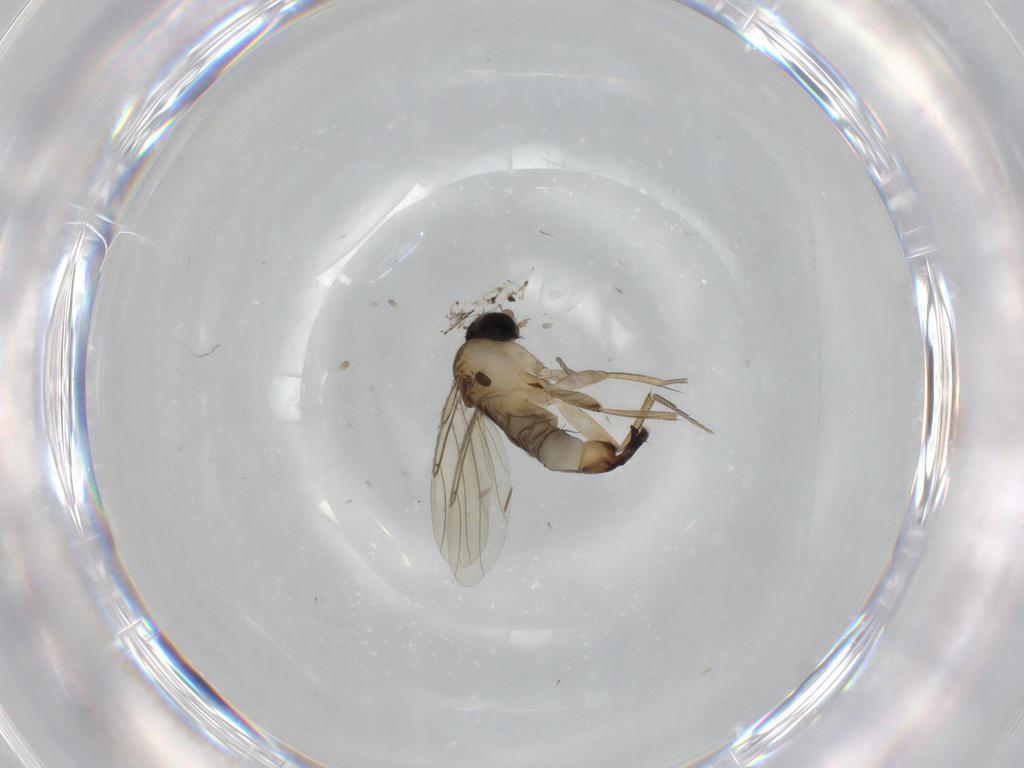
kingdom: Animalia
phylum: Arthropoda
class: Insecta
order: Diptera
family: Phoridae
